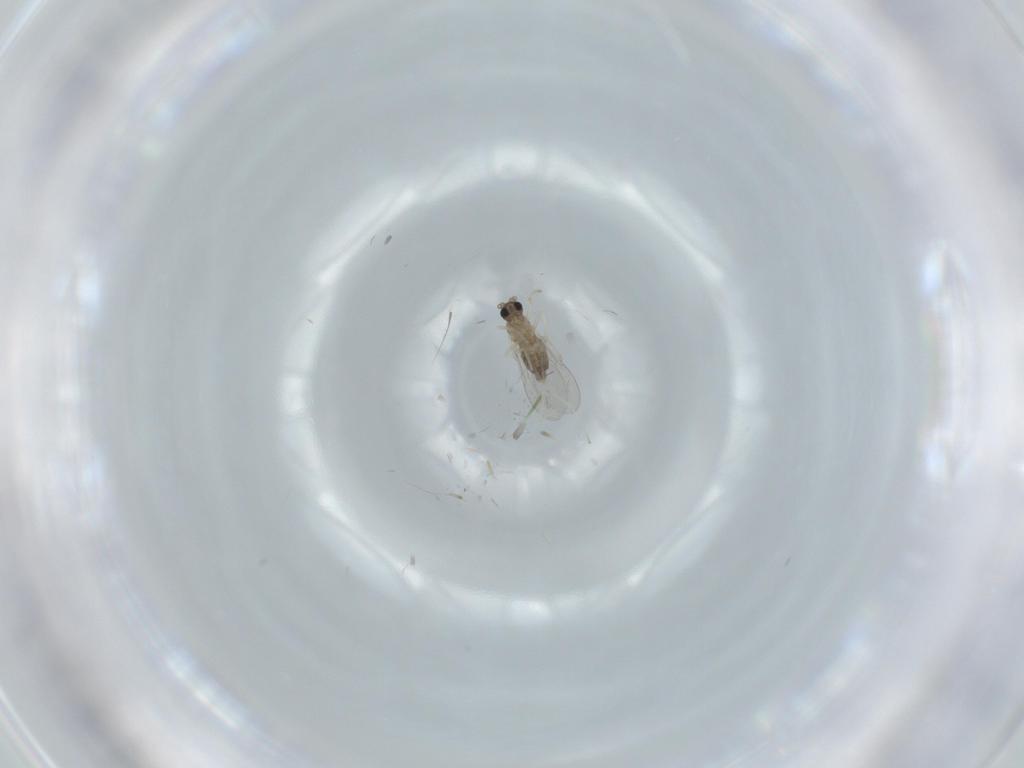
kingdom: Animalia
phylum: Arthropoda
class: Insecta
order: Diptera
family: Cecidomyiidae
